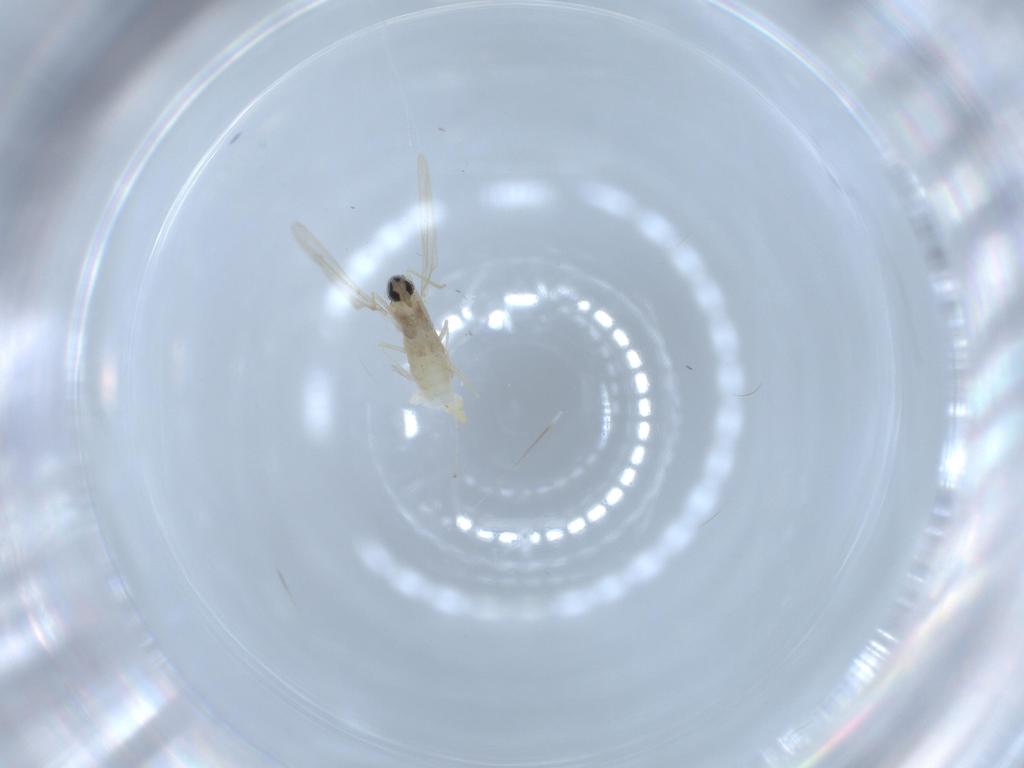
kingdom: Animalia
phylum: Arthropoda
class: Insecta
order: Diptera
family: Cecidomyiidae
